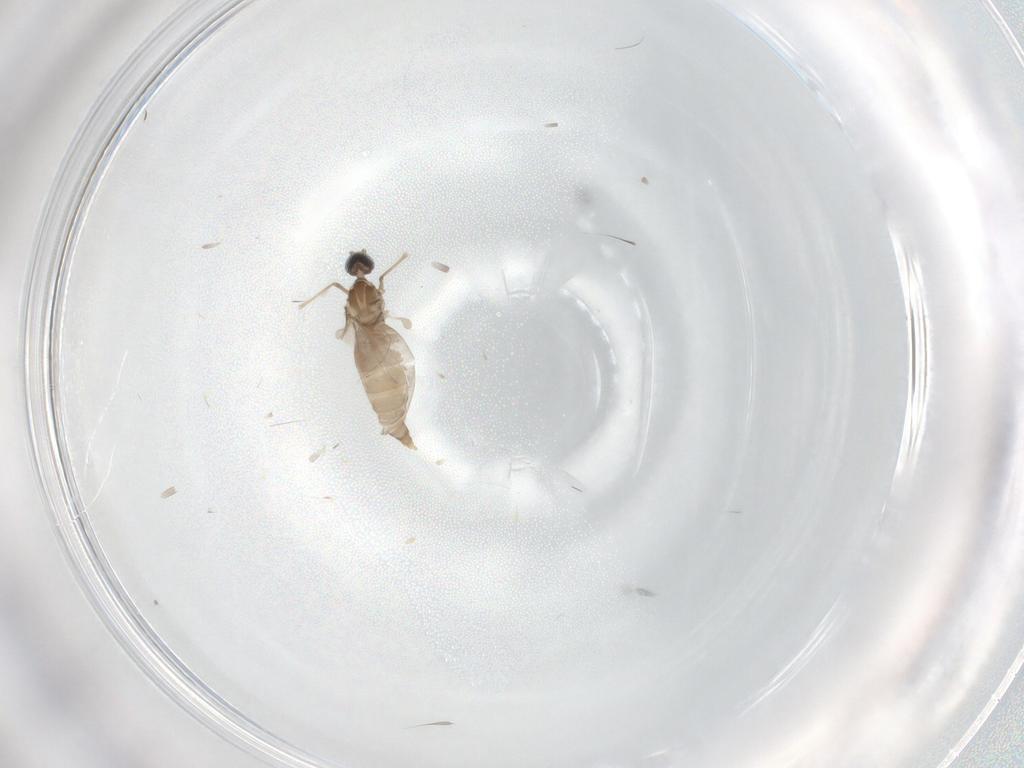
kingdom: Animalia
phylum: Arthropoda
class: Insecta
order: Diptera
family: Cecidomyiidae
